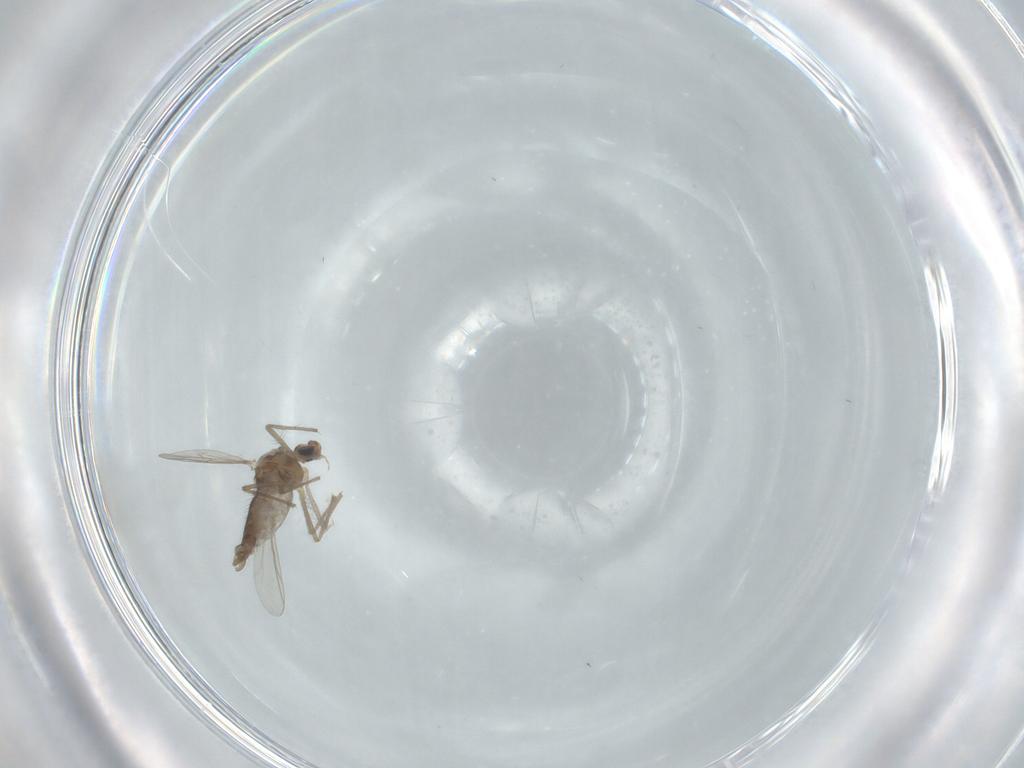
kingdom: Animalia
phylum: Arthropoda
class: Insecta
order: Diptera
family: Chironomidae
